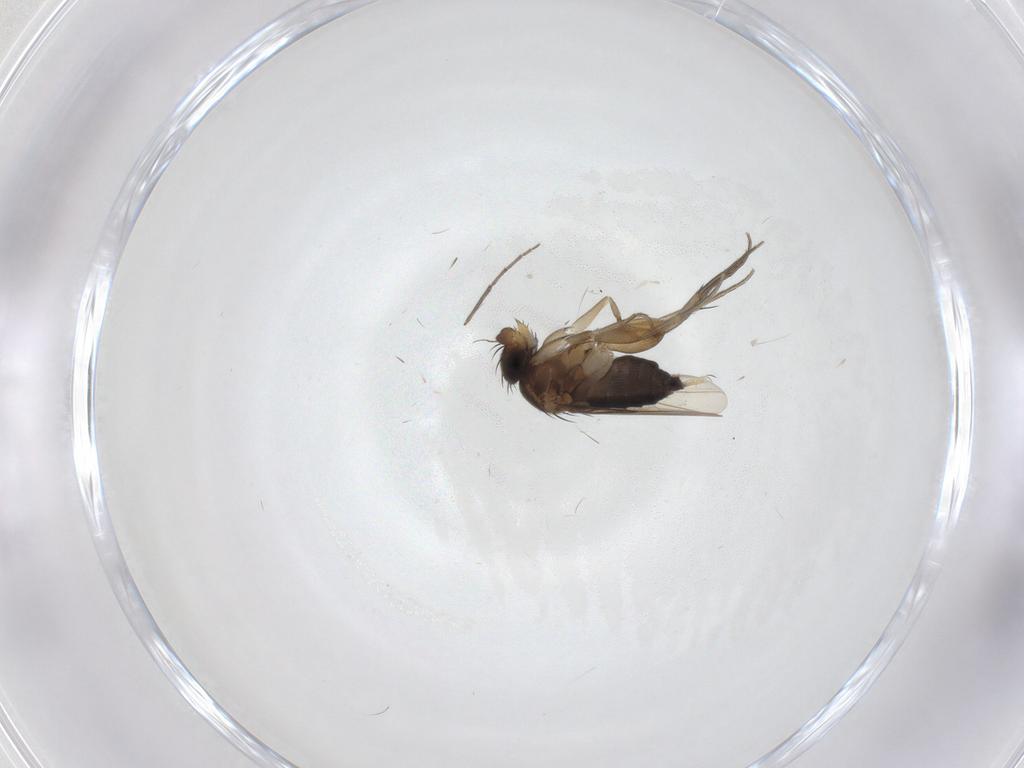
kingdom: Animalia
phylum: Arthropoda
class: Insecta
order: Diptera
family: Chironomidae
